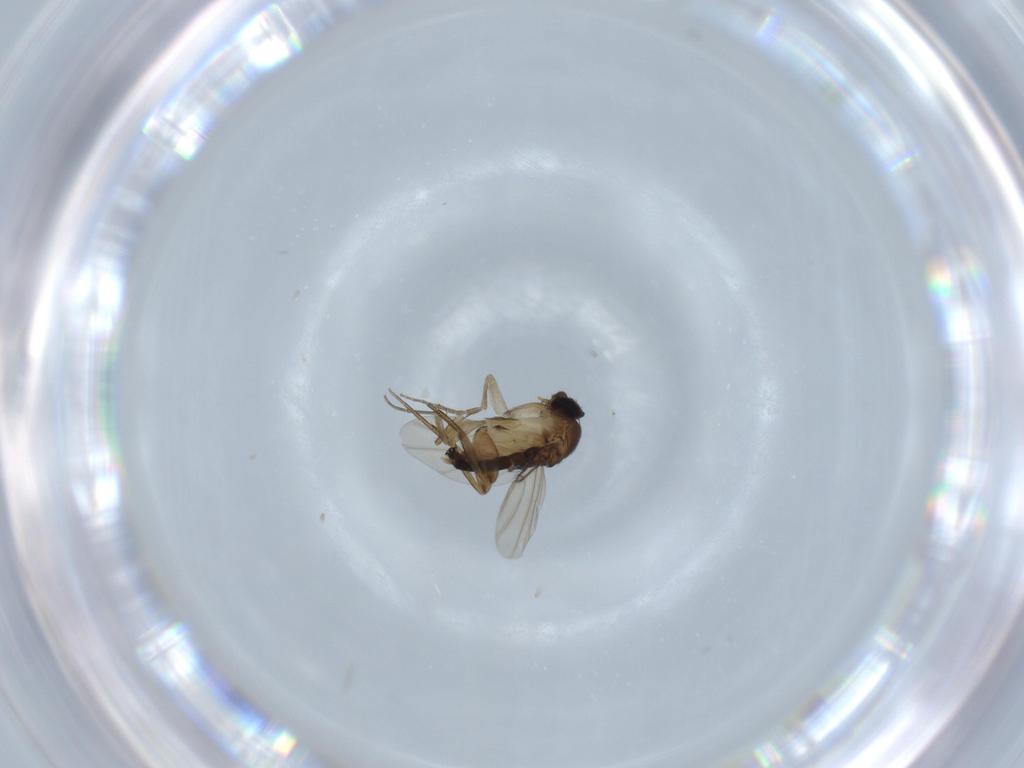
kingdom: Animalia
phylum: Arthropoda
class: Insecta
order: Diptera
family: Phoridae
